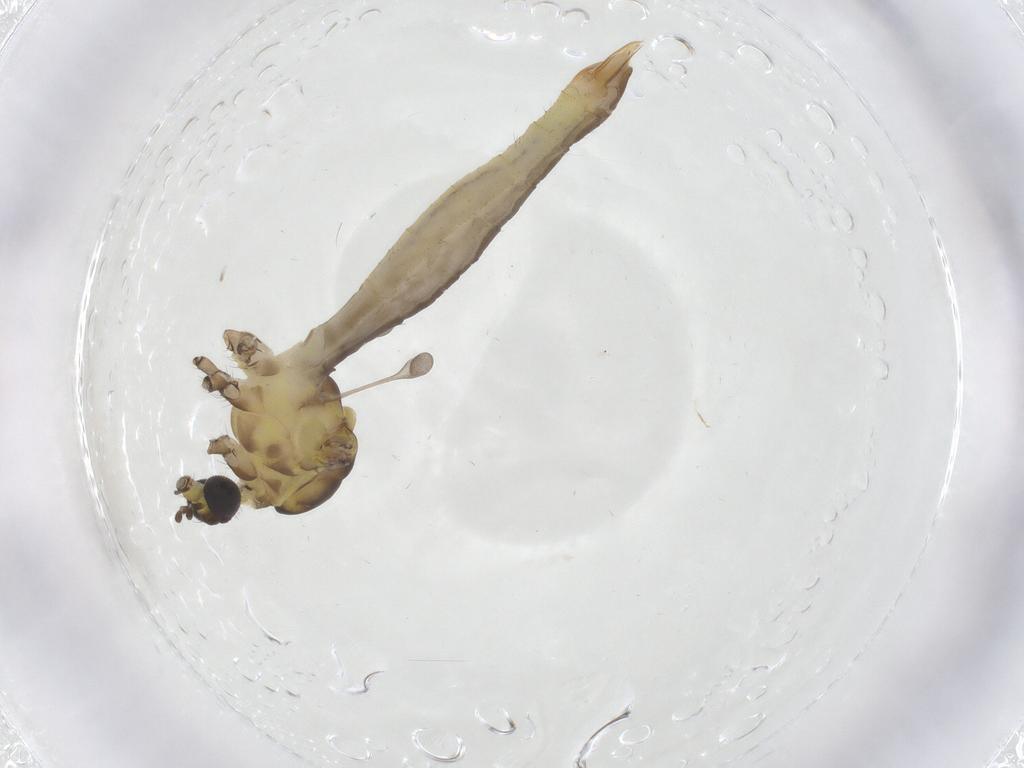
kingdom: Animalia
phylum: Arthropoda
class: Insecta
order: Diptera
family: Limoniidae
